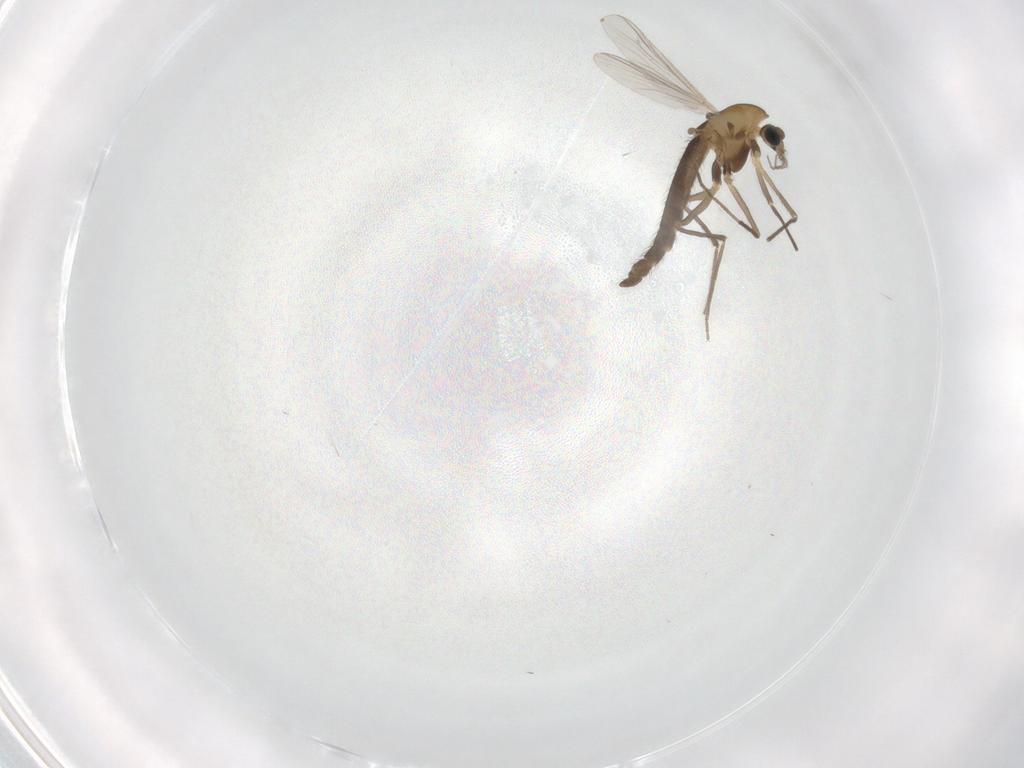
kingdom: Animalia
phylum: Arthropoda
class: Insecta
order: Diptera
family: Chironomidae
